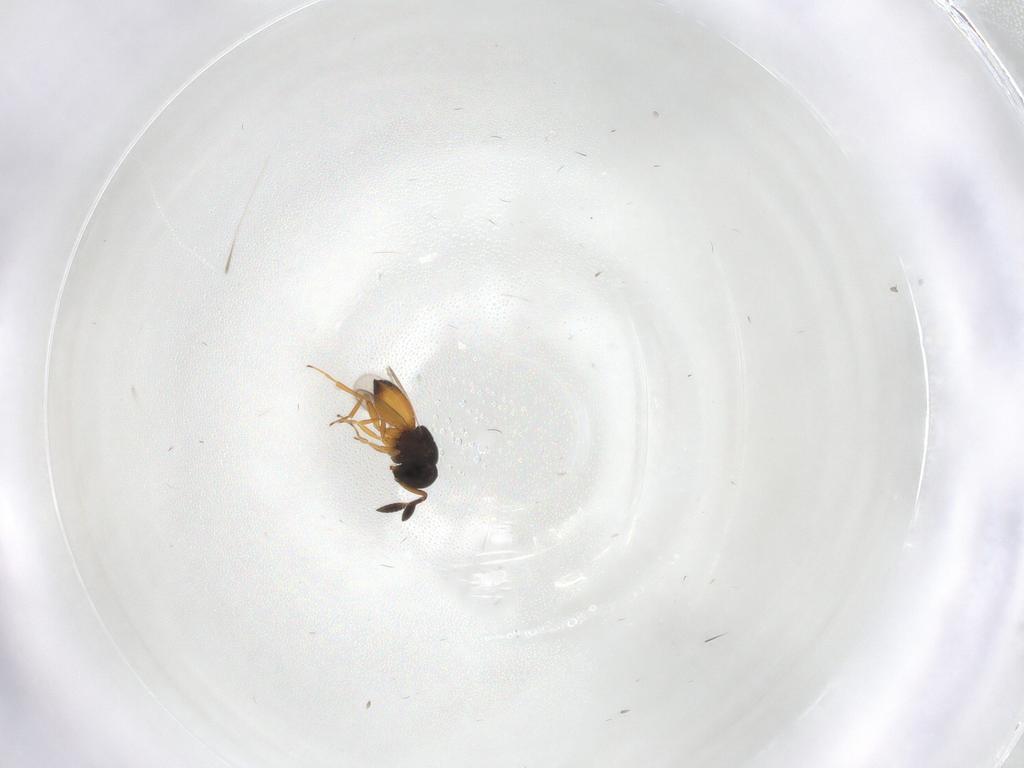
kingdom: Animalia
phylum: Arthropoda
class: Insecta
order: Hymenoptera
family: Scelionidae
